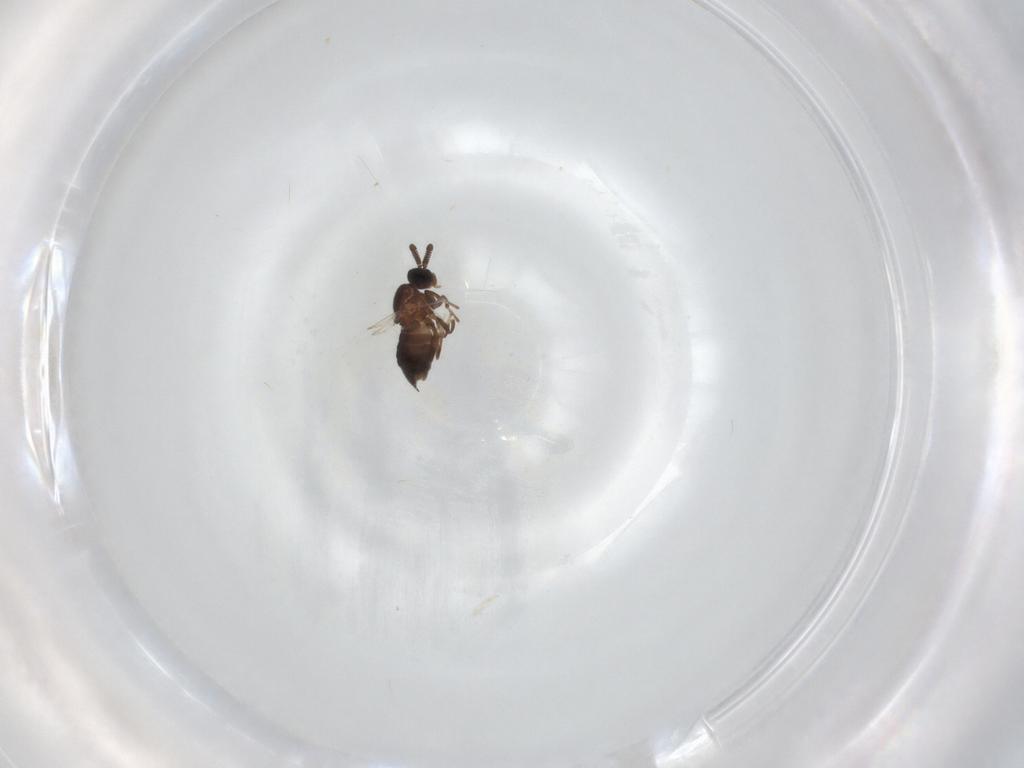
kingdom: Animalia
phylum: Arthropoda
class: Insecta
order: Diptera
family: Scatopsidae
